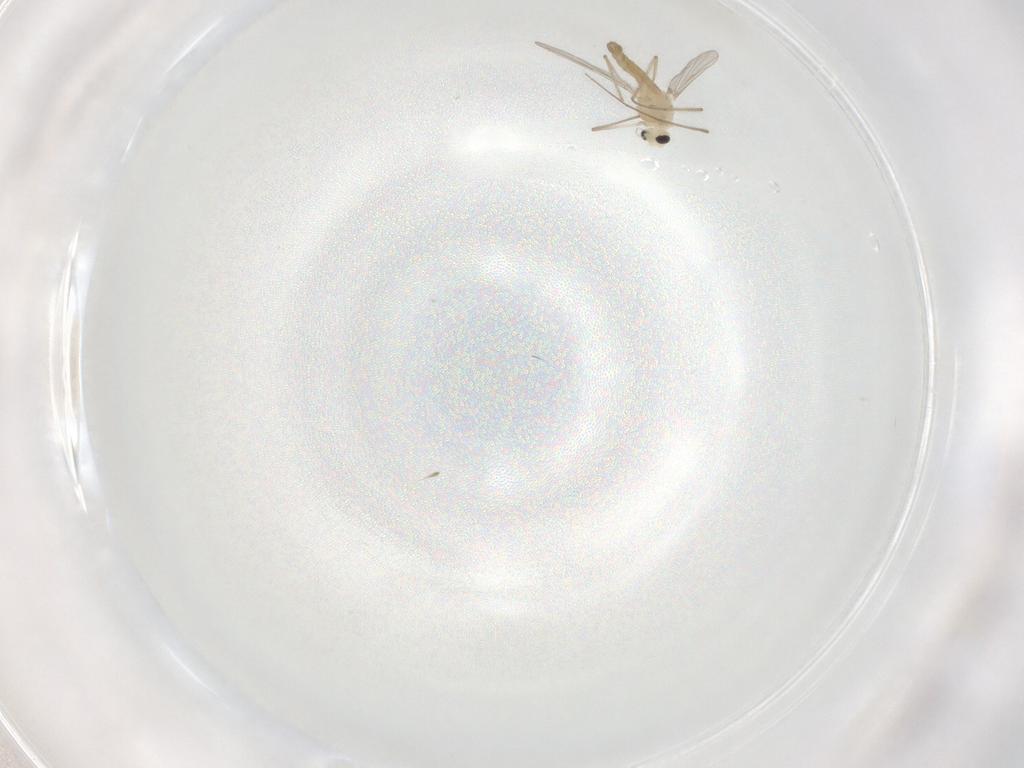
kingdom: Animalia
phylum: Arthropoda
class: Insecta
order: Diptera
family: Chironomidae
